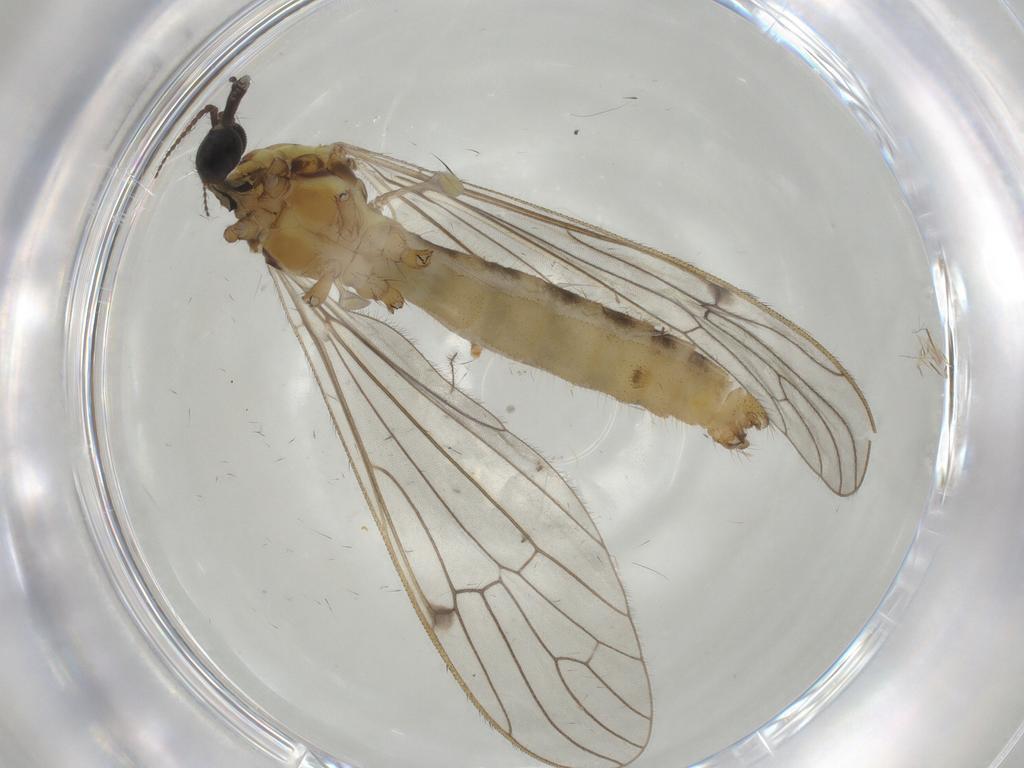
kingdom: Animalia
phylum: Arthropoda
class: Insecta
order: Diptera
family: Limoniidae
